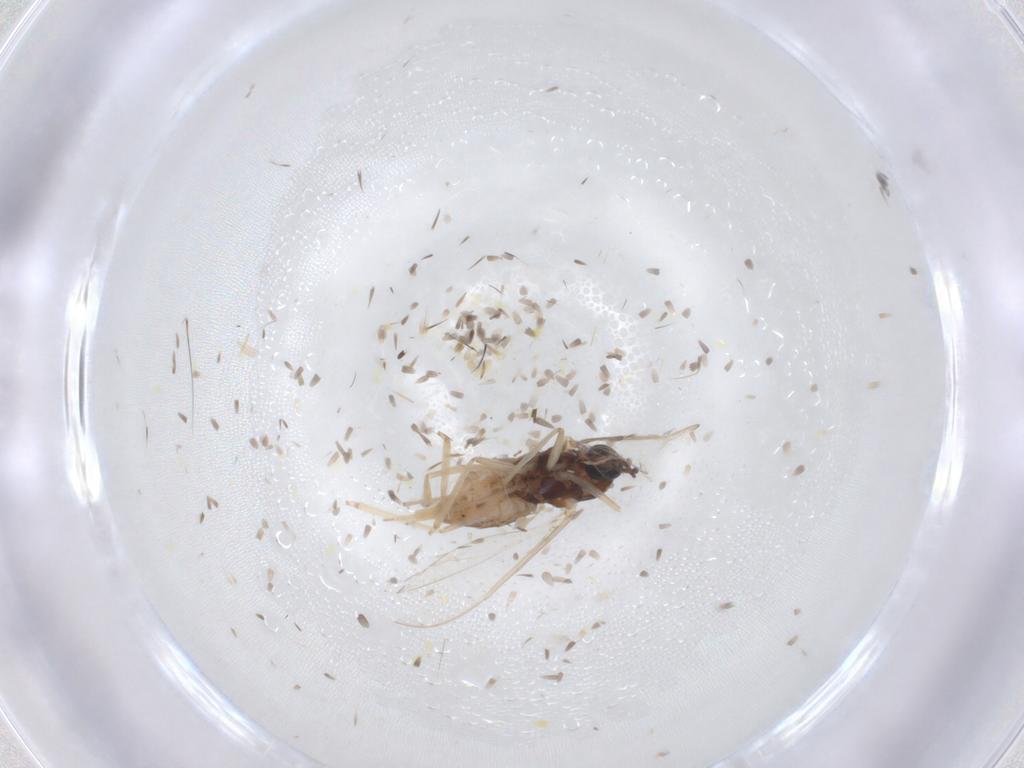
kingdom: Animalia
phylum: Arthropoda
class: Insecta
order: Diptera
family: Cecidomyiidae
